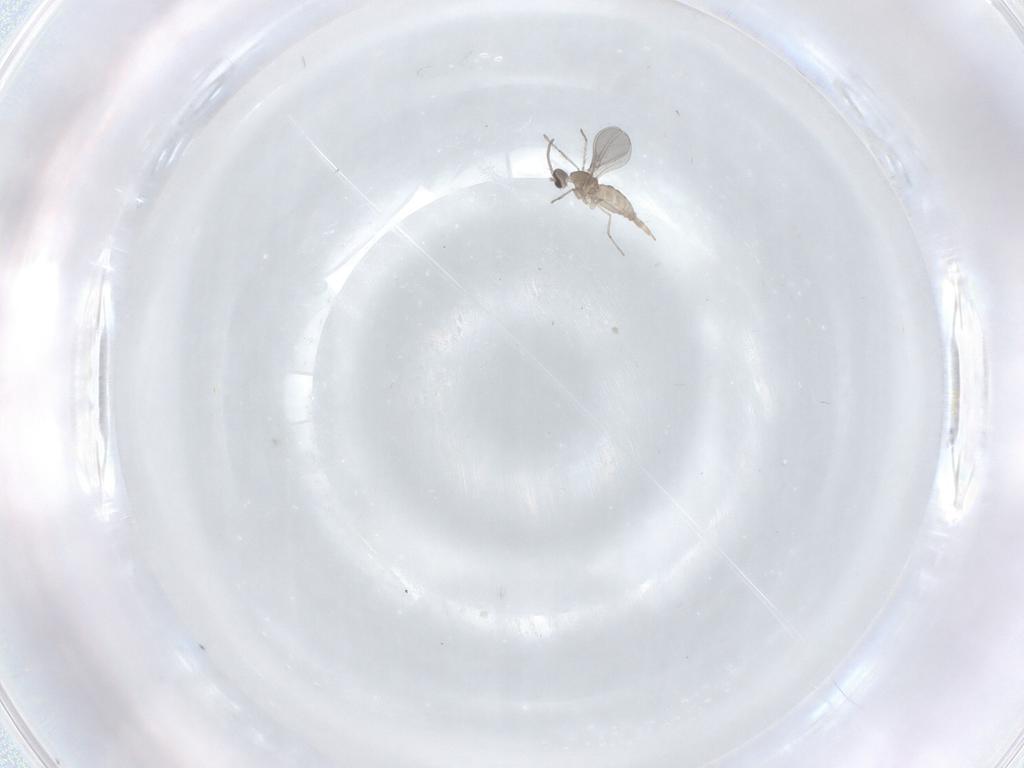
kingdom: Animalia
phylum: Arthropoda
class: Insecta
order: Diptera
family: Cecidomyiidae
